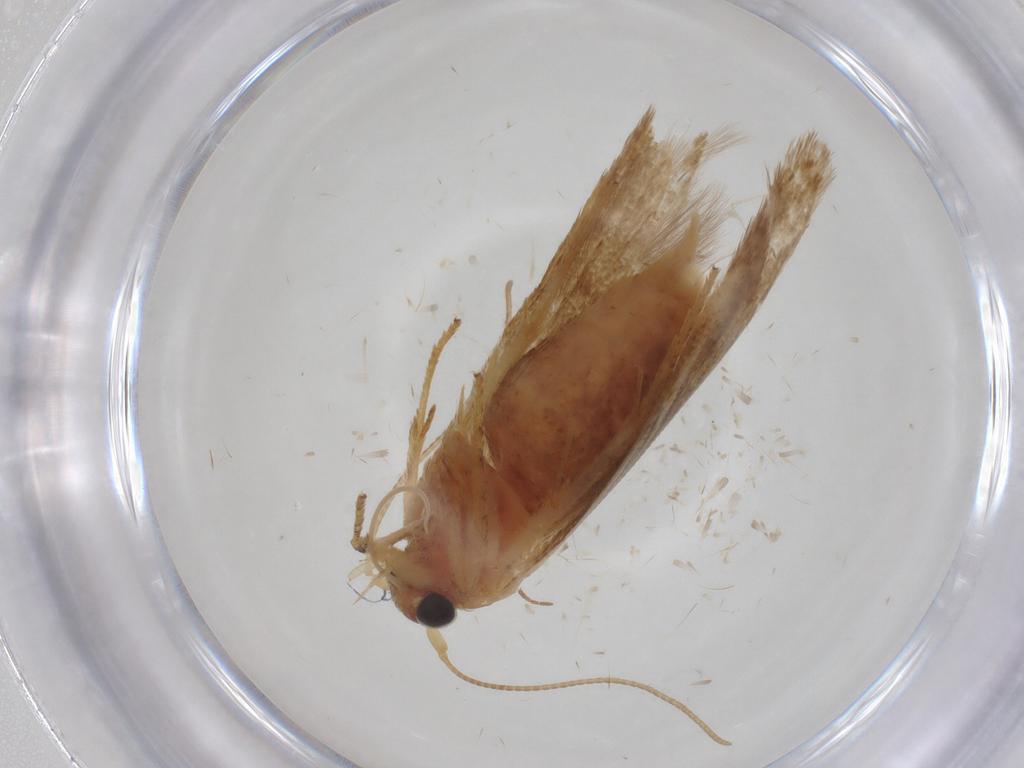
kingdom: Animalia
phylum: Arthropoda
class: Insecta
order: Lepidoptera
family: Blastobasidae
